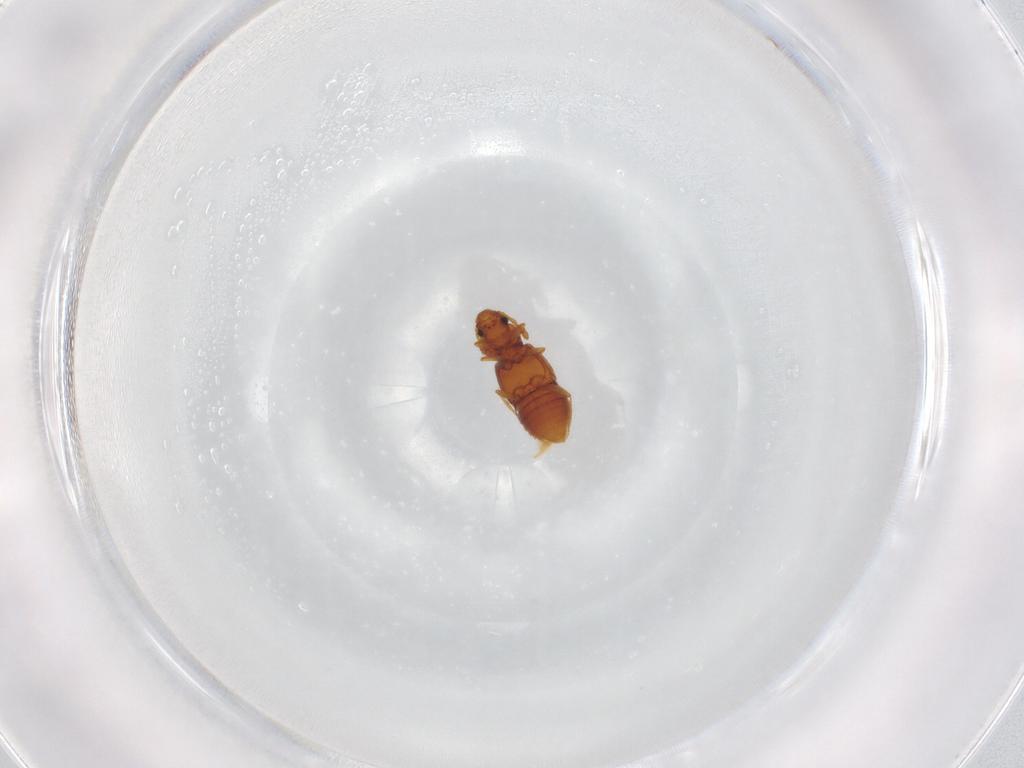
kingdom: Animalia
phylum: Arthropoda
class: Insecta
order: Coleoptera
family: Staphylinidae
